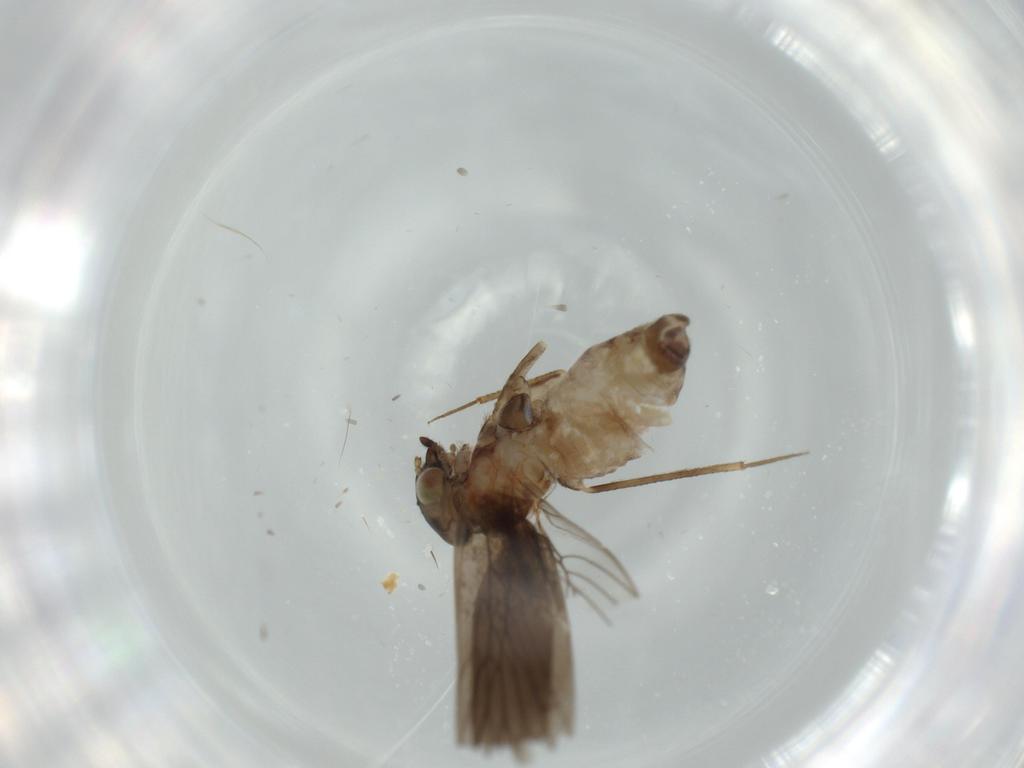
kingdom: Animalia
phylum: Arthropoda
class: Insecta
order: Psocodea
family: Lepidopsocidae
